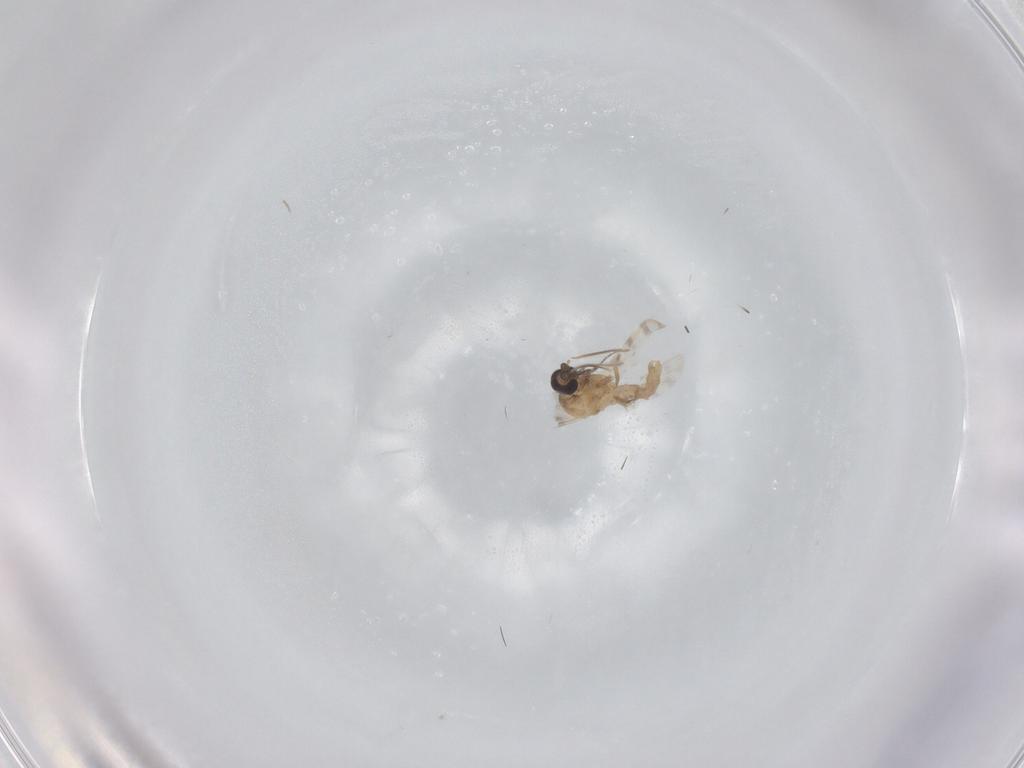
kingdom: Animalia
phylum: Arthropoda
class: Insecta
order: Diptera
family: Ceratopogonidae
